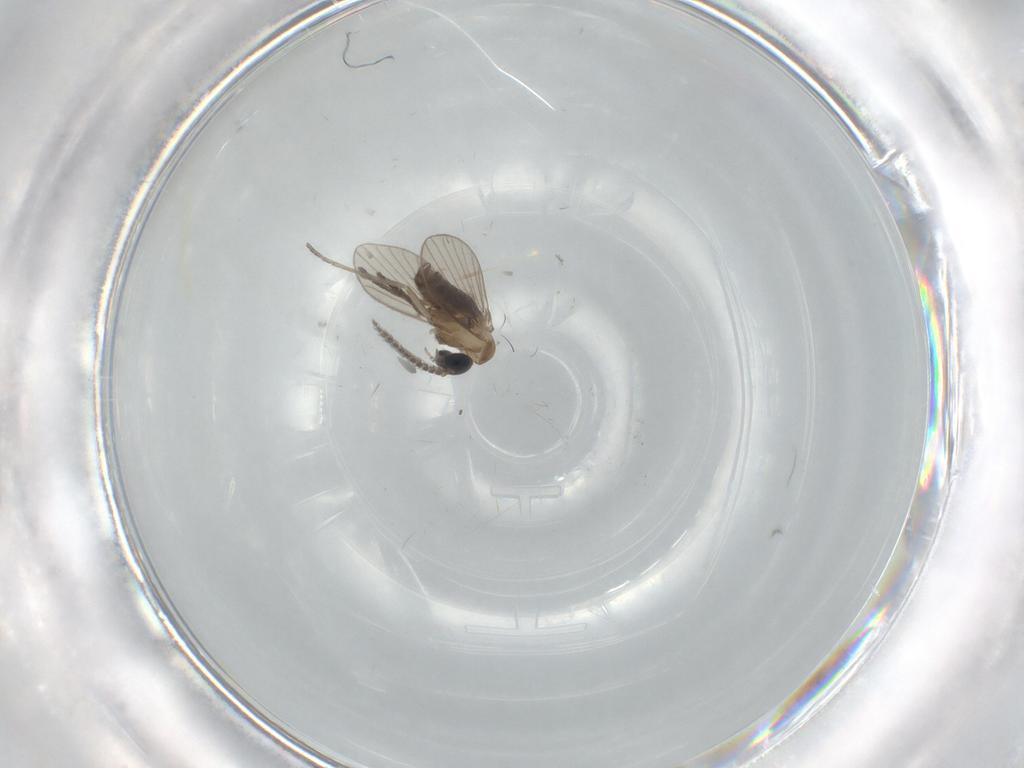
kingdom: Animalia
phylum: Arthropoda
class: Insecta
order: Diptera
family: Psychodidae
